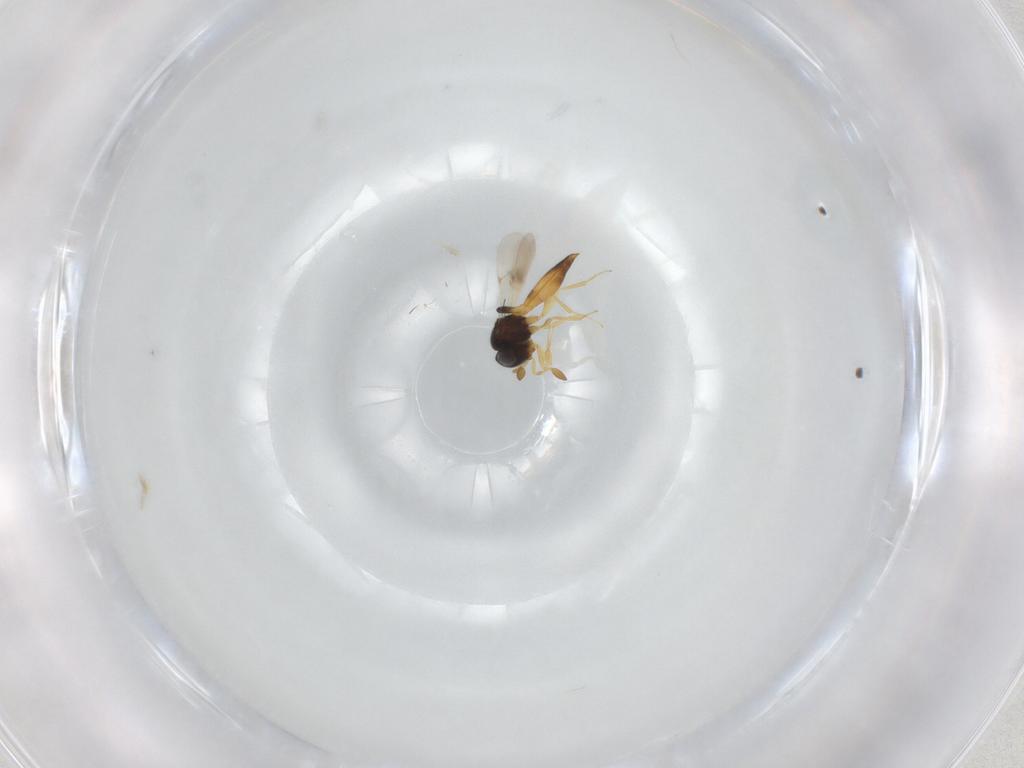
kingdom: Animalia
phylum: Arthropoda
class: Insecta
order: Hymenoptera
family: Scelionidae
